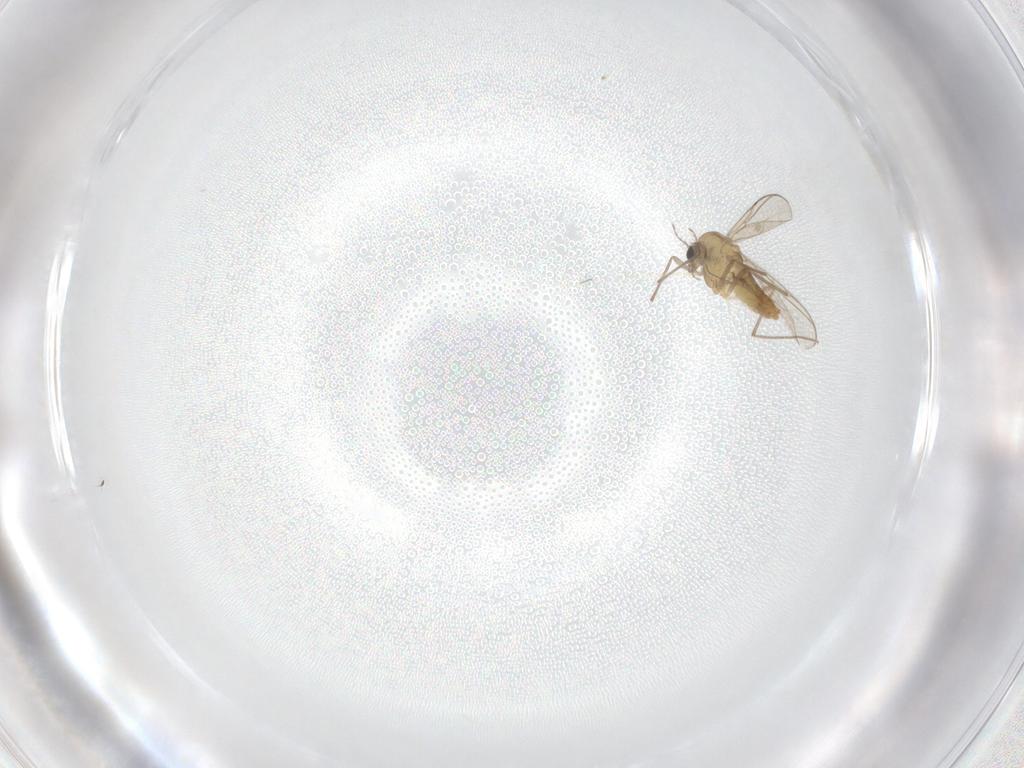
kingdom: Animalia
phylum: Arthropoda
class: Insecta
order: Diptera
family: Chironomidae
